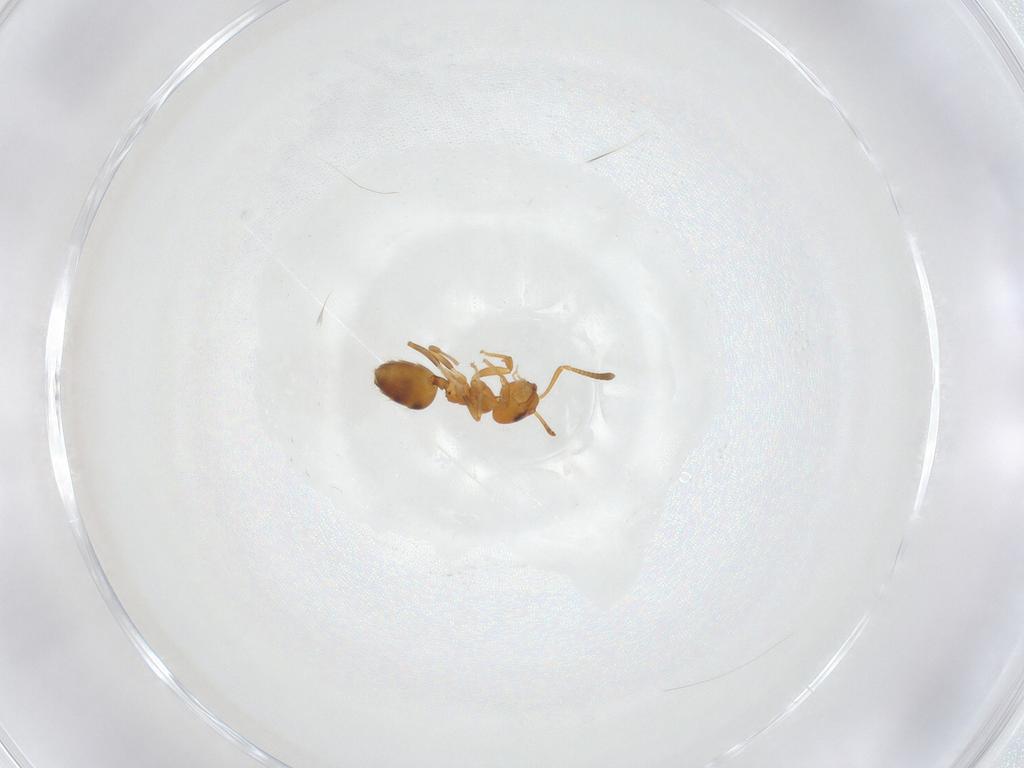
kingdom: Animalia
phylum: Arthropoda
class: Insecta
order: Hymenoptera
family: Formicidae
